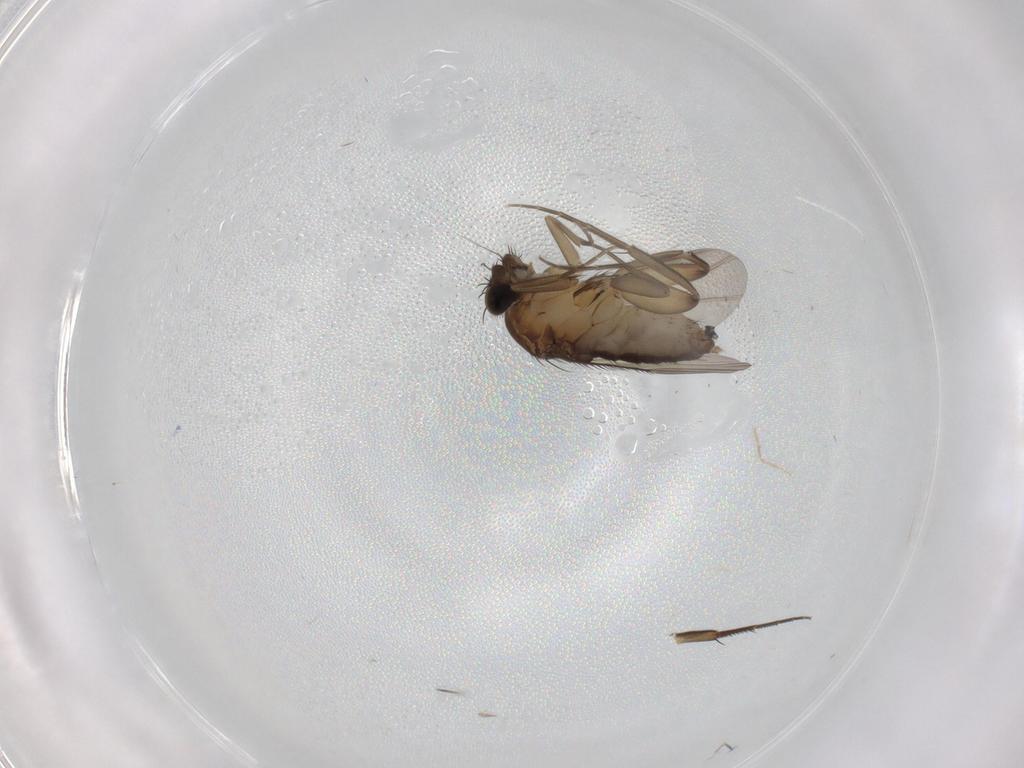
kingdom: Animalia
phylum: Arthropoda
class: Insecta
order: Diptera
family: Phoridae
